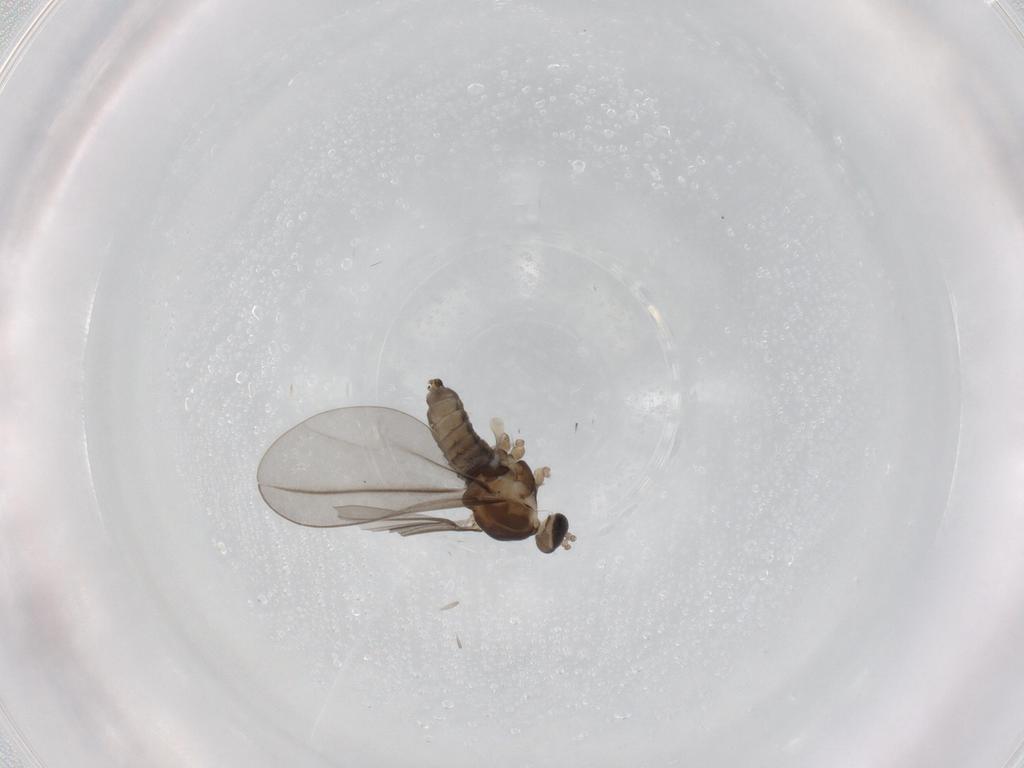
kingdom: Animalia
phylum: Arthropoda
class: Insecta
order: Diptera
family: Cecidomyiidae
